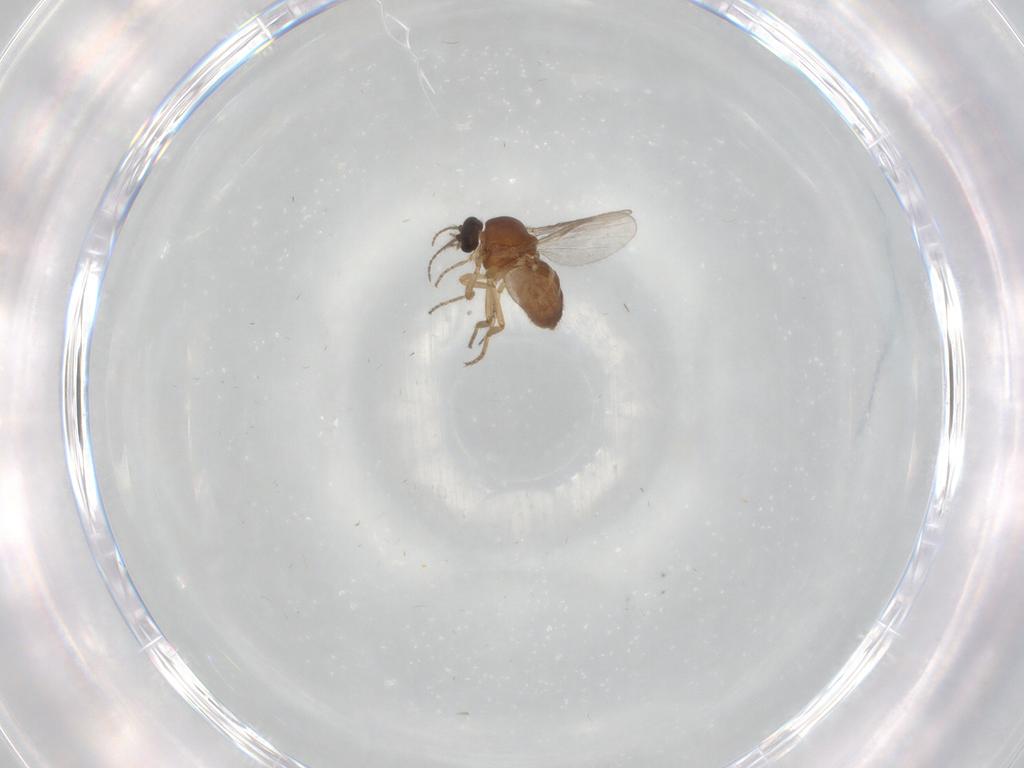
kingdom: Animalia
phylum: Arthropoda
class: Insecta
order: Diptera
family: Ceratopogonidae
